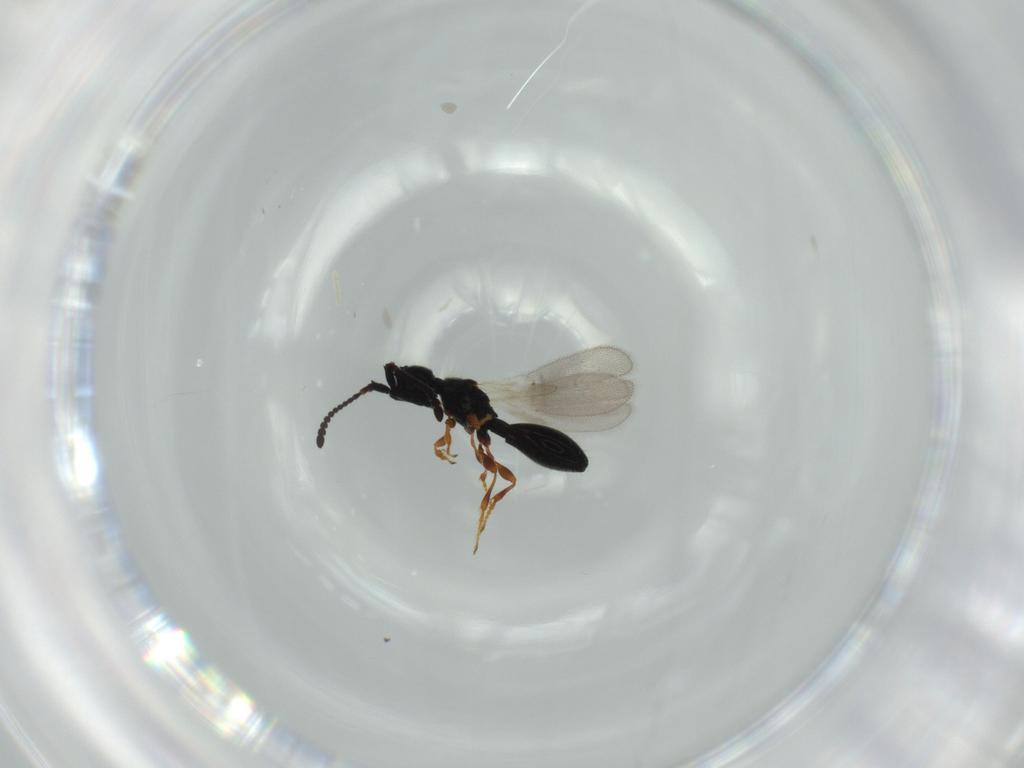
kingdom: Animalia
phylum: Arthropoda
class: Insecta
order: Hymenoptera
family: Diapriidae
